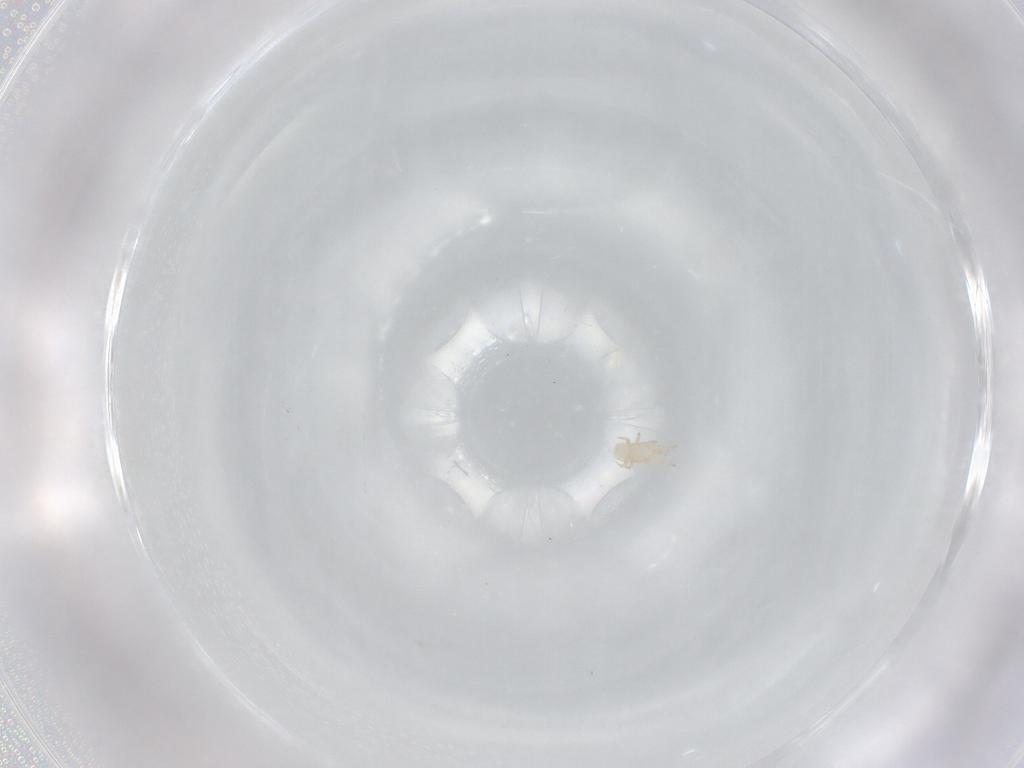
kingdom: Animalia
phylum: Arthropoda
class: Arachnida
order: Mesostigmata
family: Digamasellidae
